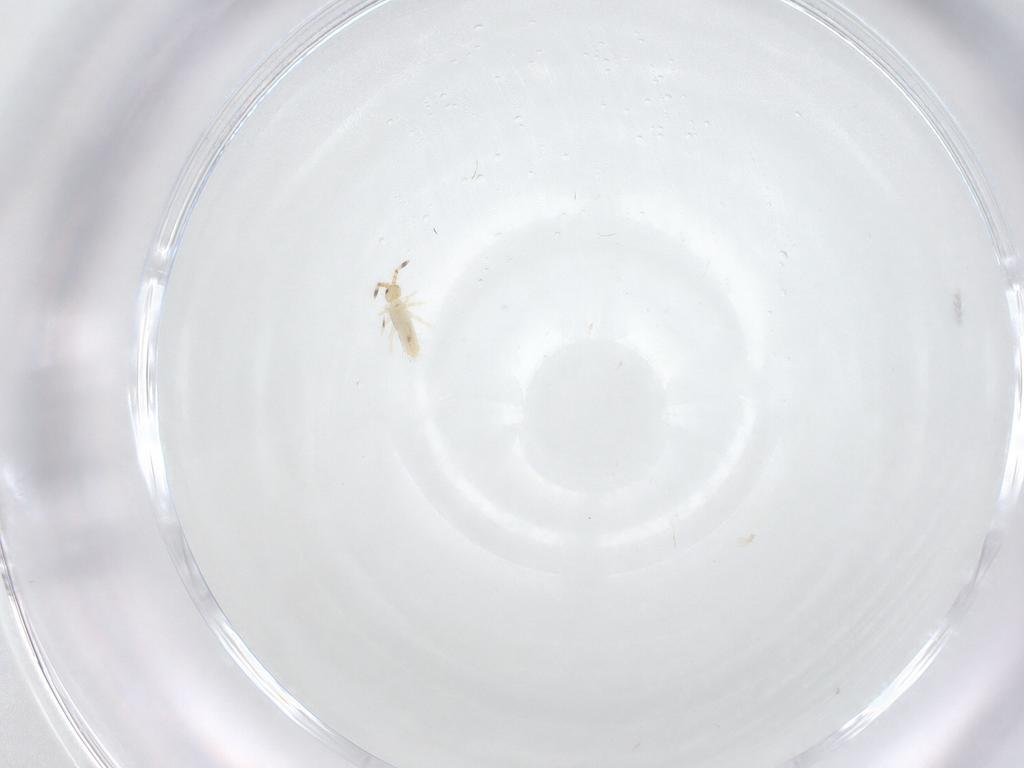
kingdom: Animalia
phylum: Arthropoda
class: Collembola
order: Entomobryomorpha
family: Entomobryidae
